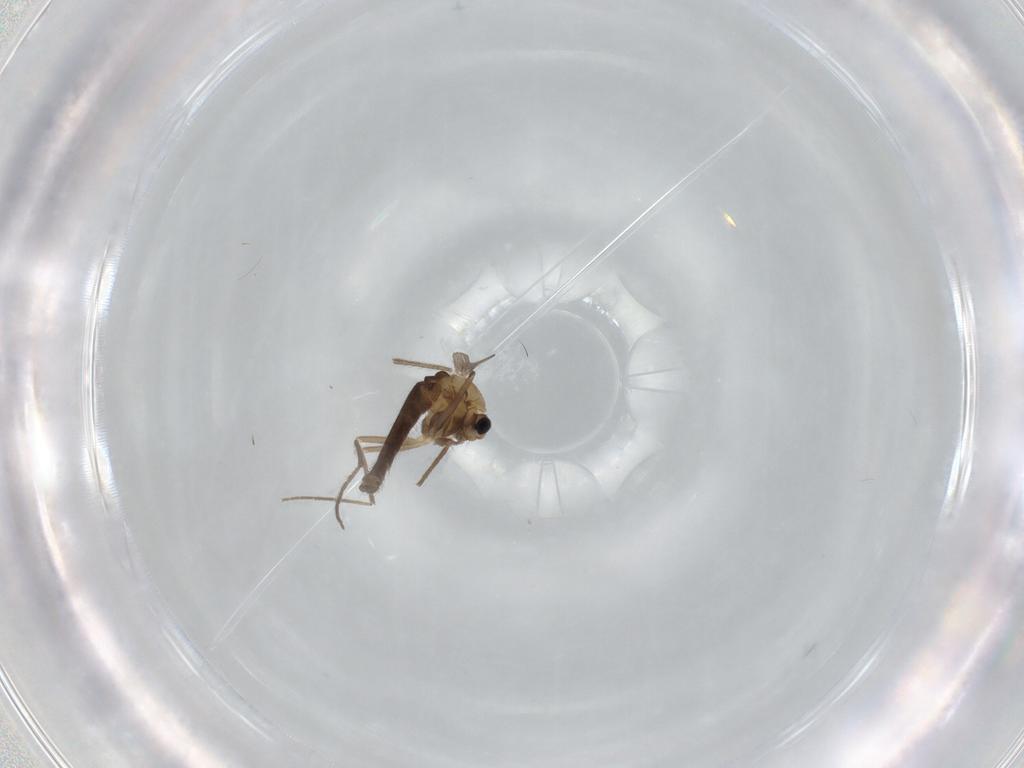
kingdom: Animalia
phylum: Arthropoda
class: Insecta
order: Diptera
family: Chironomidae
